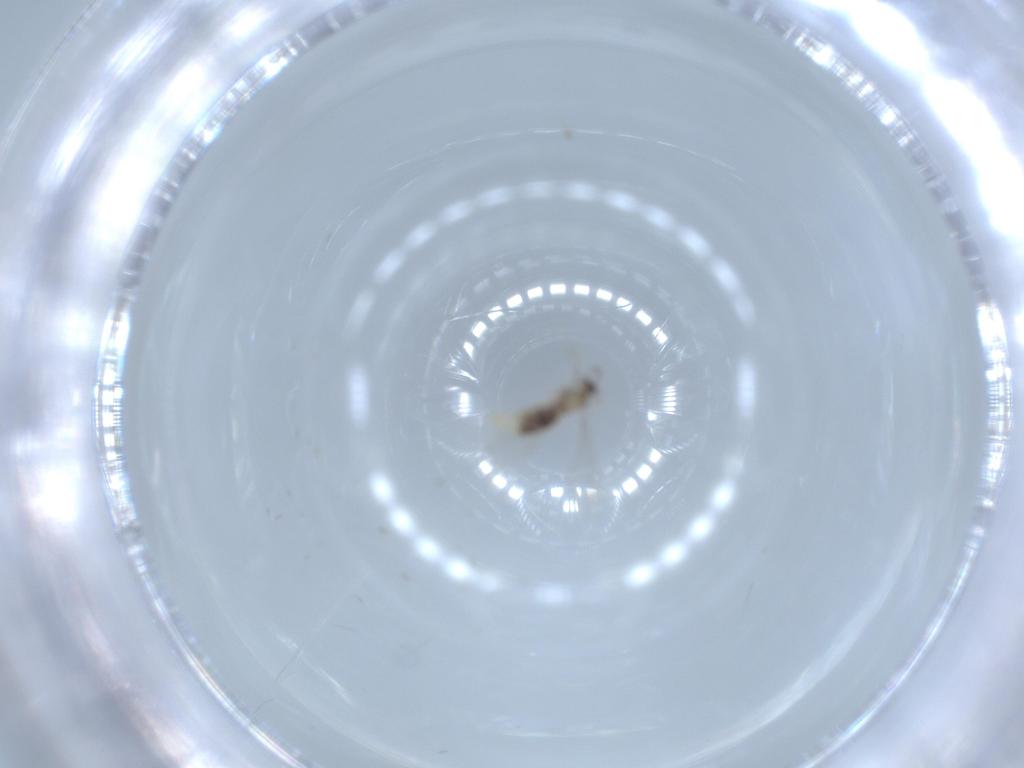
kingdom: Animalia
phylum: Arthropoda
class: Insecta
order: Diptera
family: Cecidomyiidae
